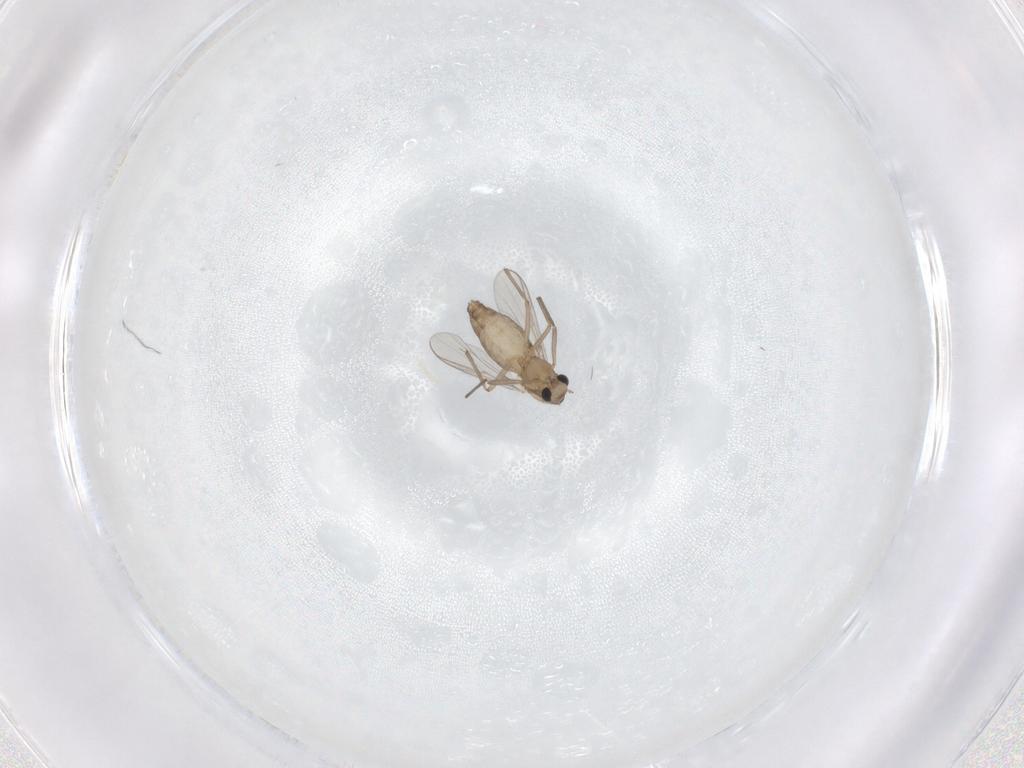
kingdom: Animalia
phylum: Arthropoda
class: Insecta
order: Diptera
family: Chironomidae
